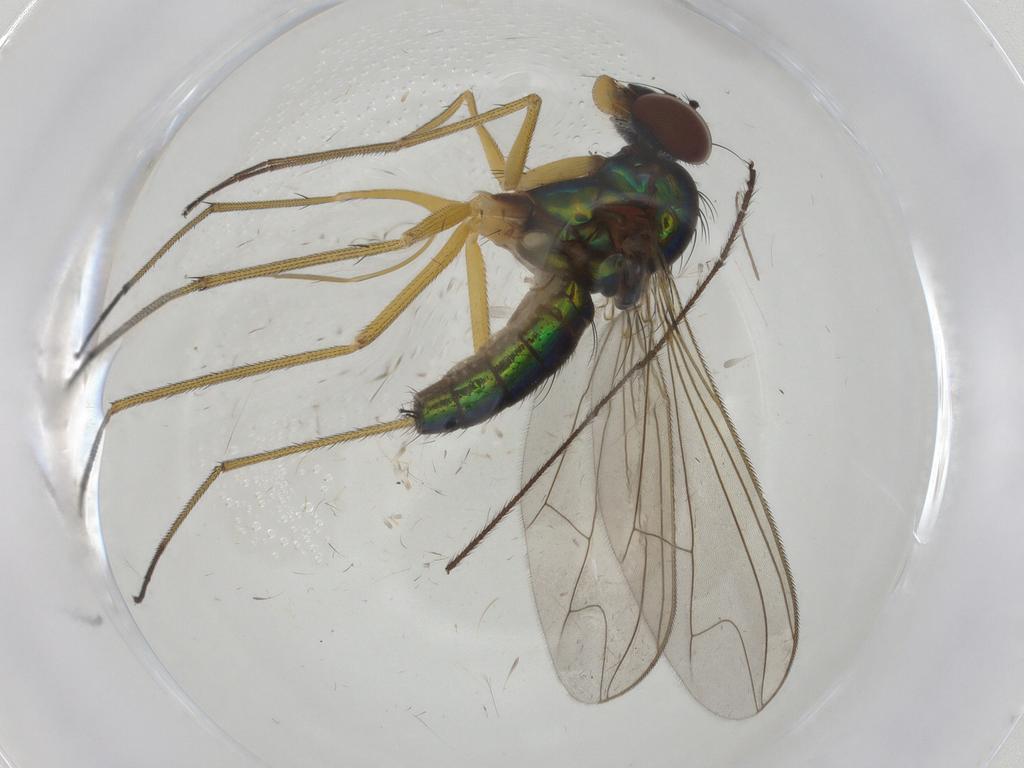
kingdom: Animalia
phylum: Arthropoda
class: Insecta
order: Diptera
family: Dolichopodidae
